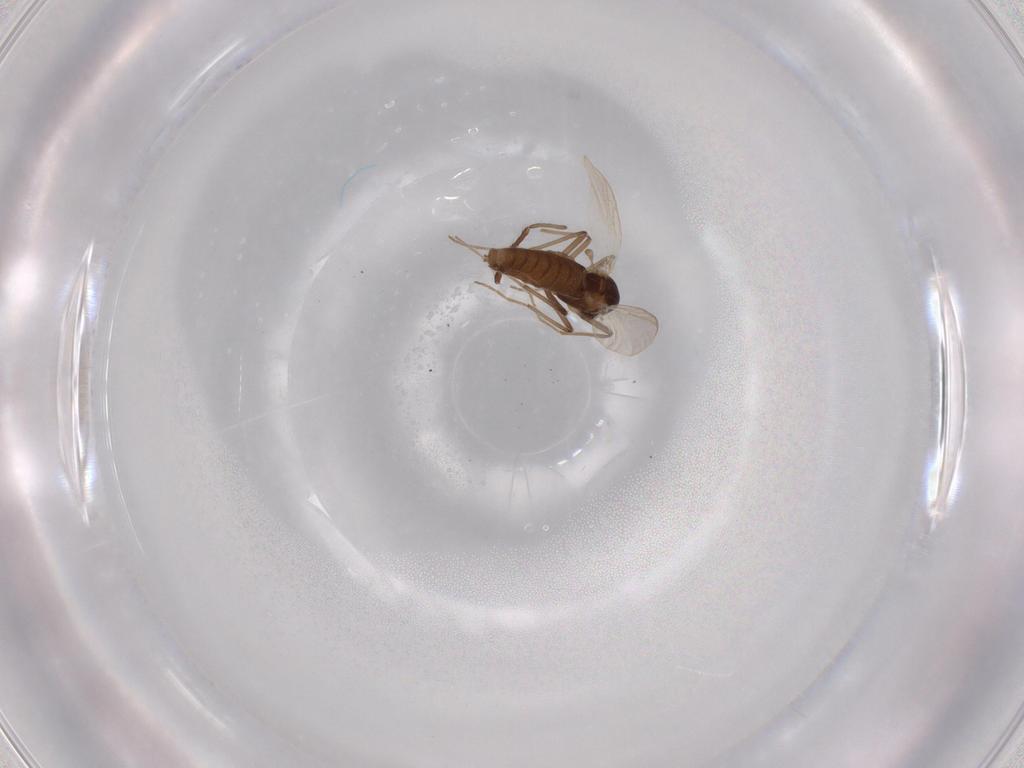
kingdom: Animalia
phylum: Arthropoda
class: Insecta
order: Diptera
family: Chironomidae
